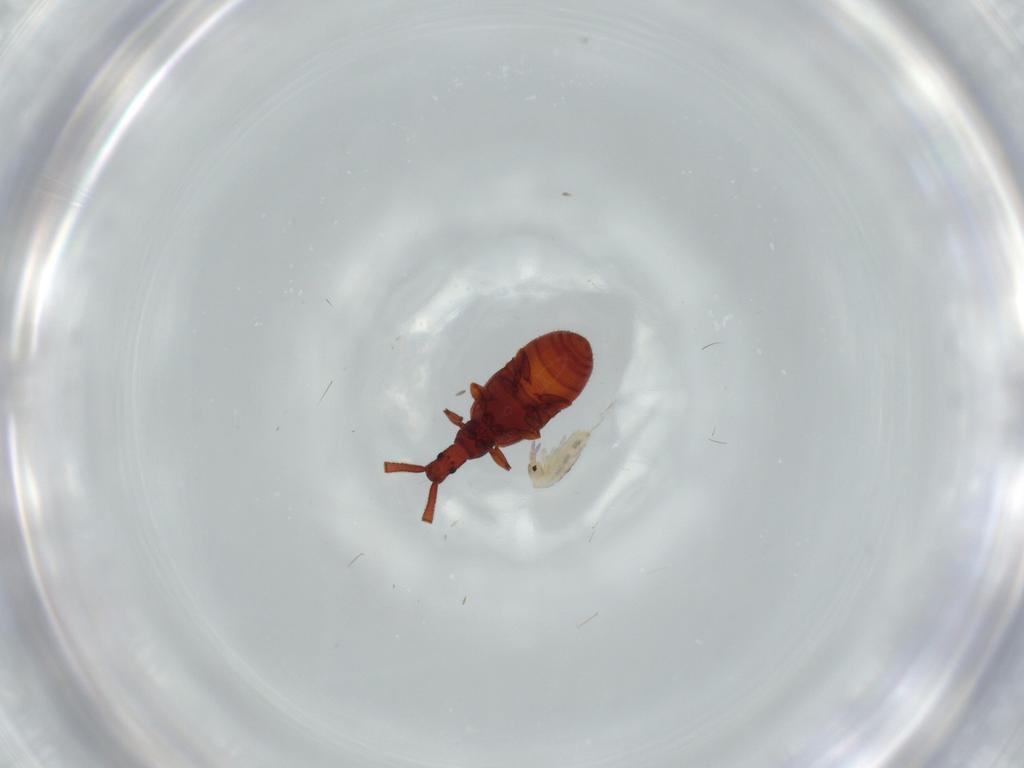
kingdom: Animalia
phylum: Arthropoda
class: Insecta
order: Coleoptera
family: Staphylinidae
